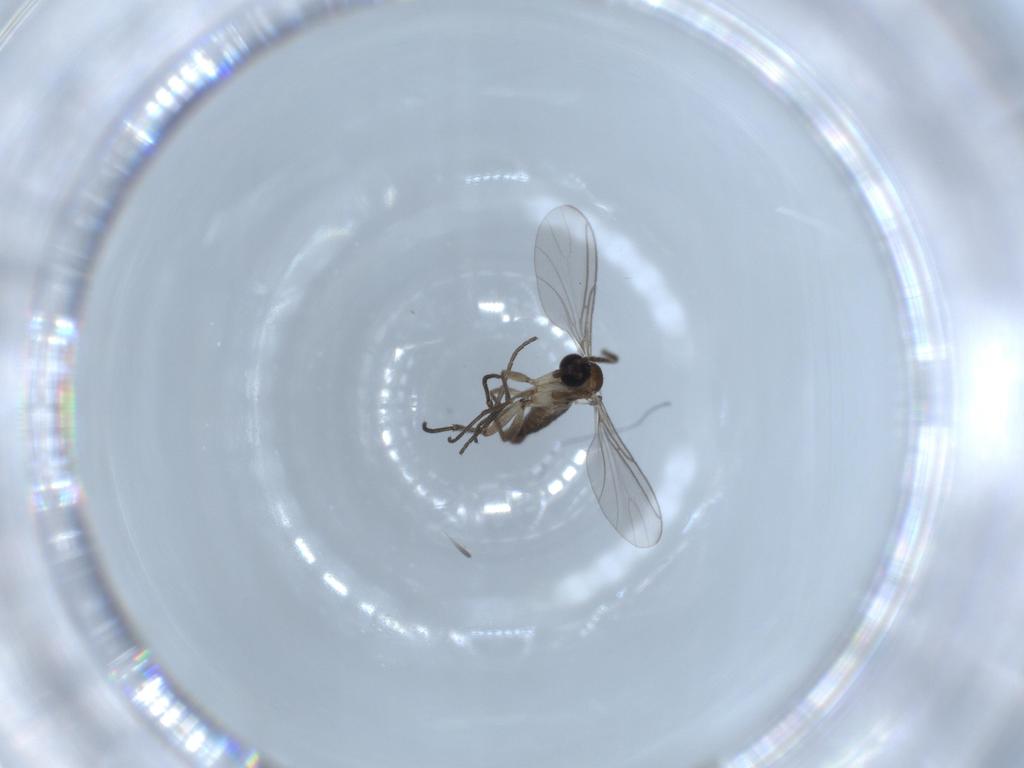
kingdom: Animalia
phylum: Arthropoda
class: Insecta
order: Diptera
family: Sciaridae
